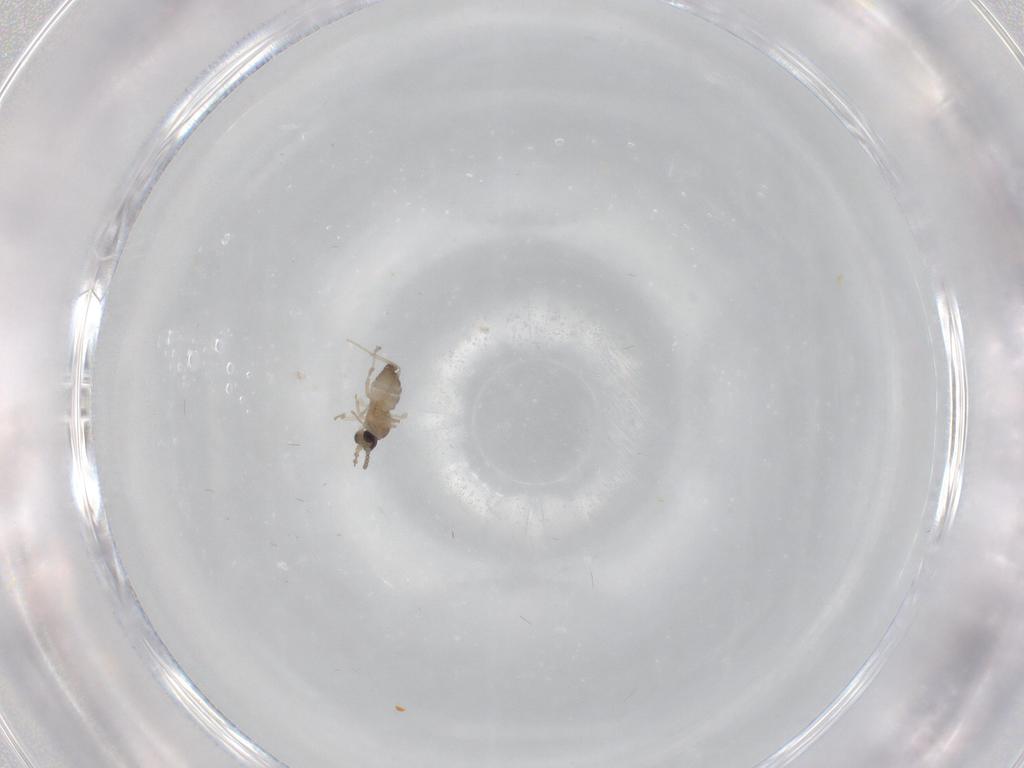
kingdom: Animalia
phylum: Arthropoda
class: Insecta
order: Diptera
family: Cecidomyiidae
